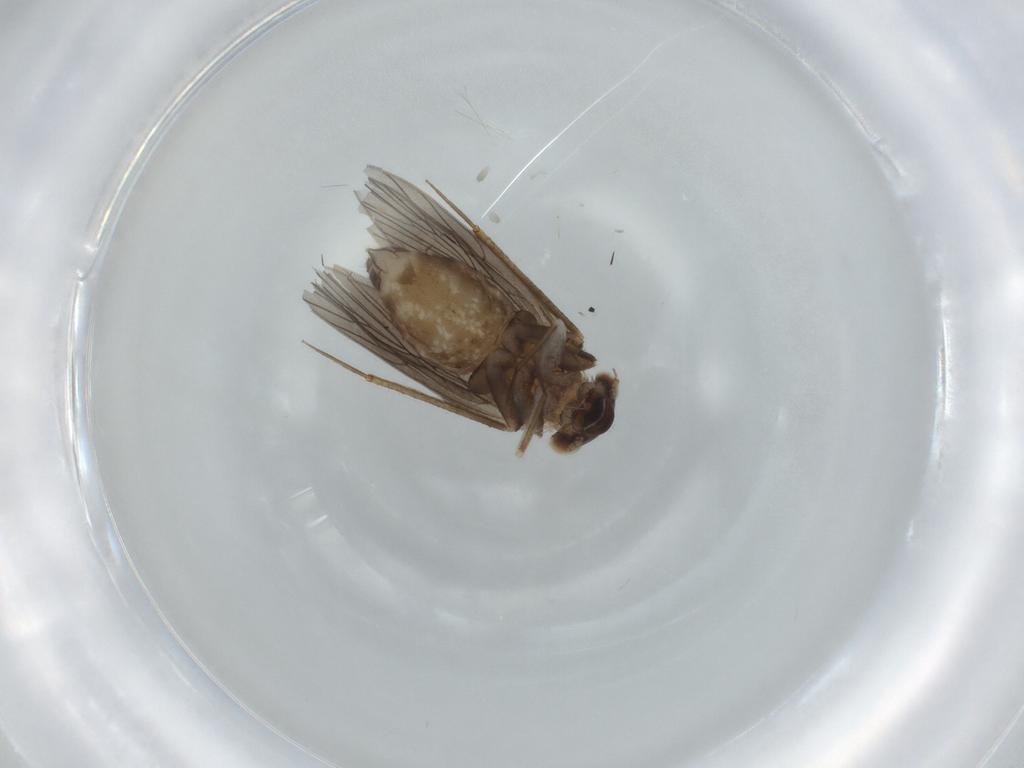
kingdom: Animalia
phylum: Arthropoda
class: Insecta
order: Psocodea
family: Lepidopsocidae
